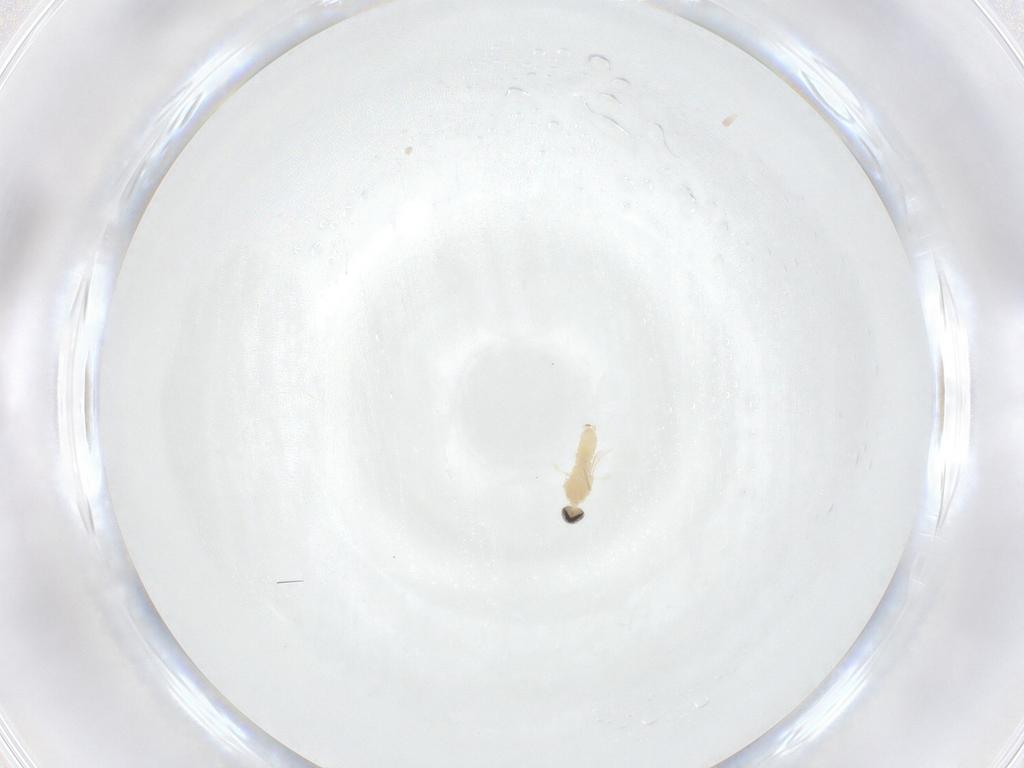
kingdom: Animalia
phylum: Arthropoda
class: Insecta
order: Diptera
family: Cecidomyiidae
